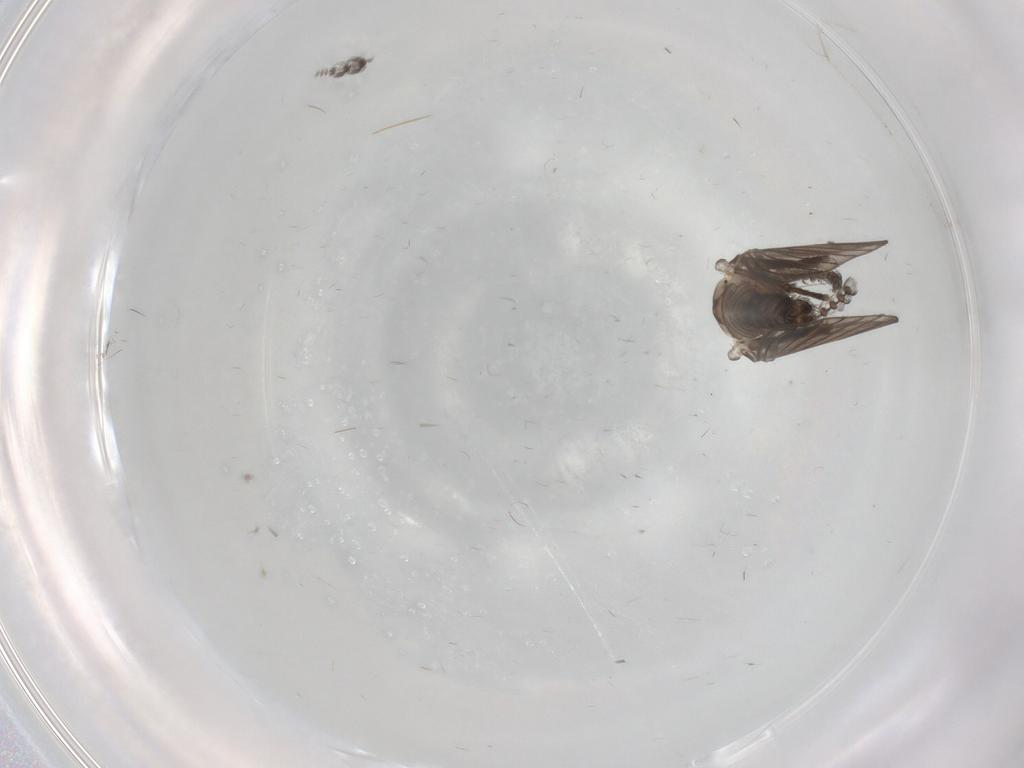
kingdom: Animalia
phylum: Arthropoda
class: Insecta
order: Diptera
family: Psychodidae
